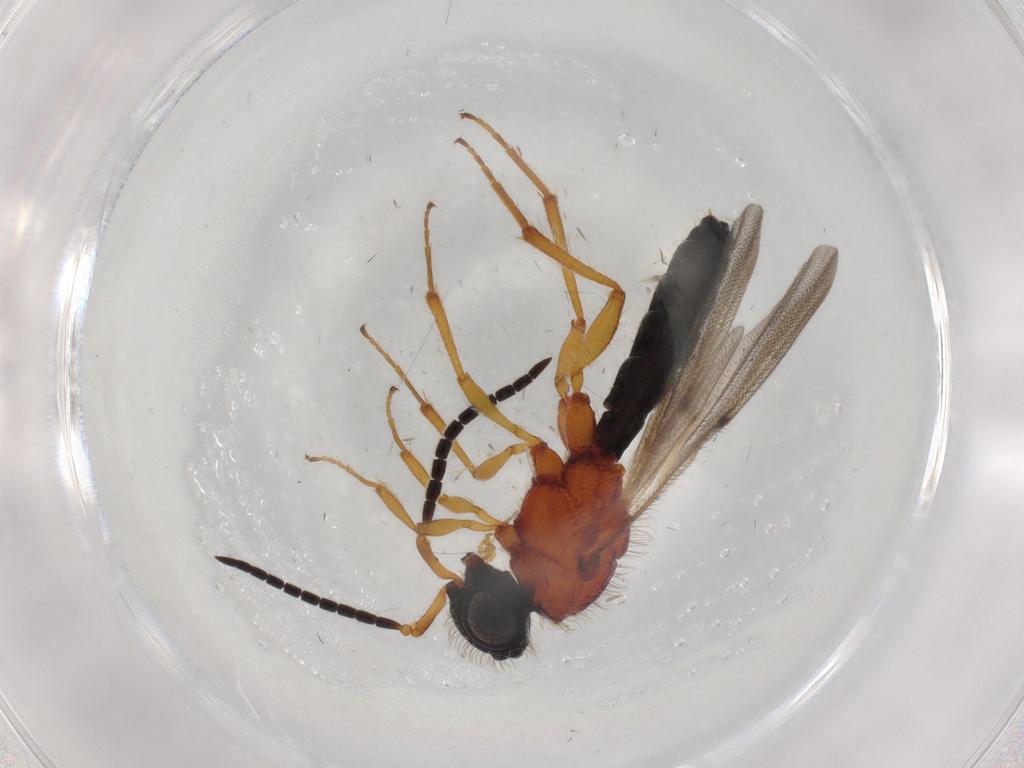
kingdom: Animalia
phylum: Arthropoda
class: Insecta
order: Hymenoptera
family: Scelionidae
